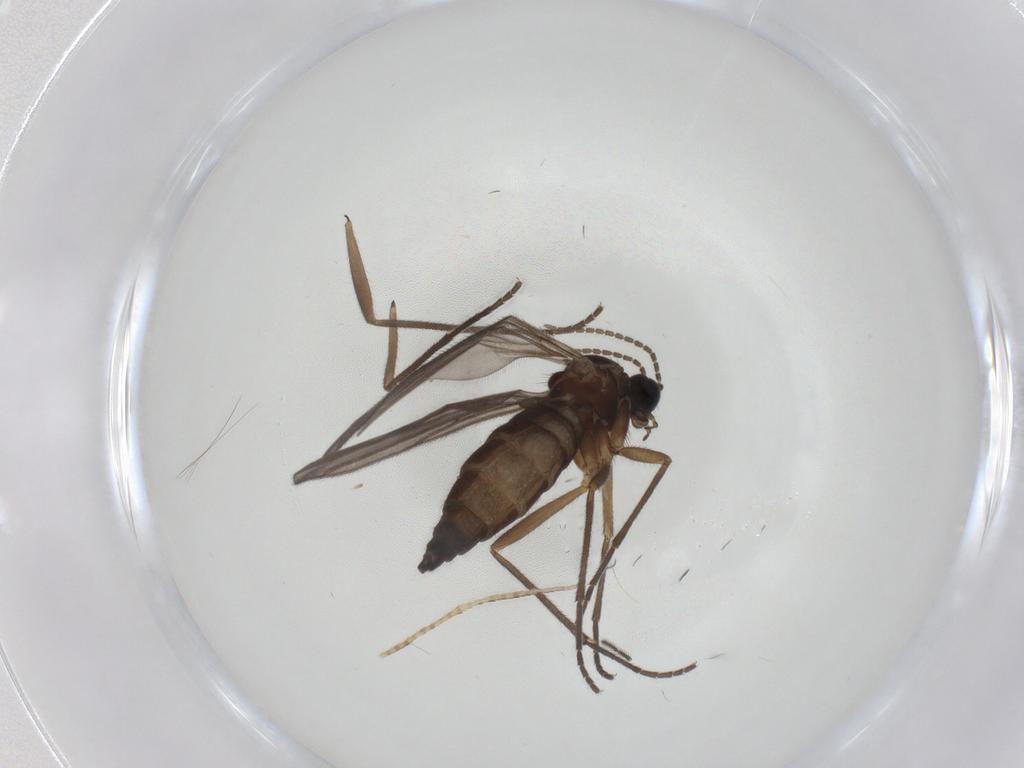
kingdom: Animalia
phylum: Arthropoda
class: Insecta
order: Diptera
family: Sciaridae
